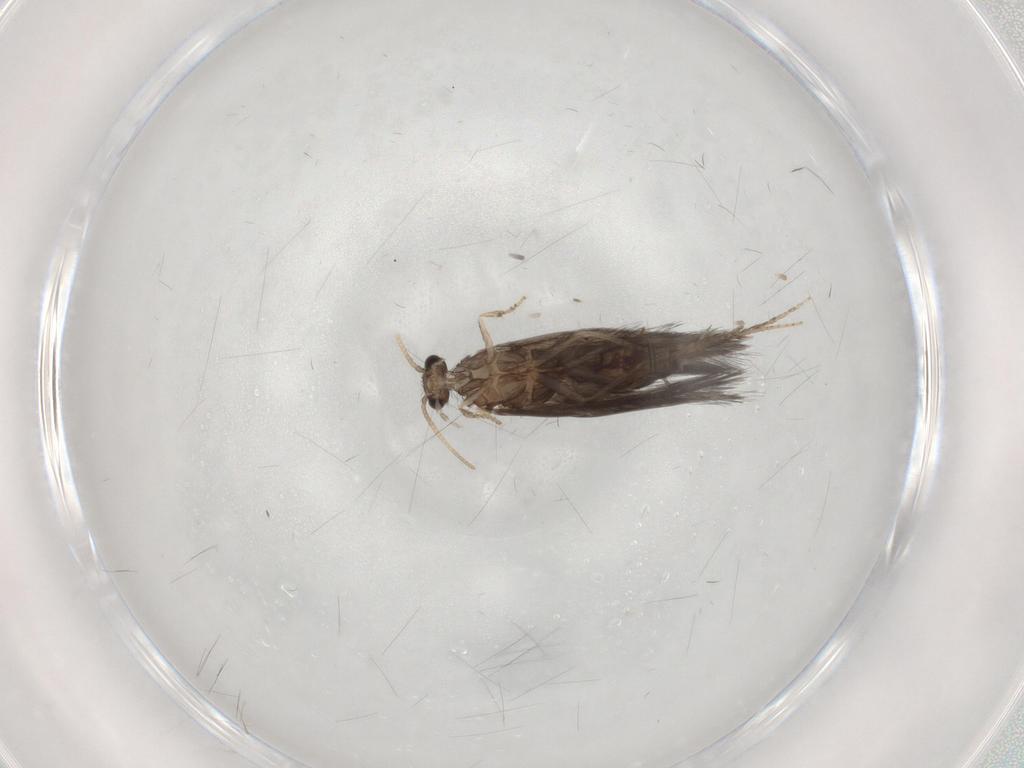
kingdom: Animalia
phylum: Arthropoda
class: Insecta
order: Trichoptera
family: Hydroptilidae
